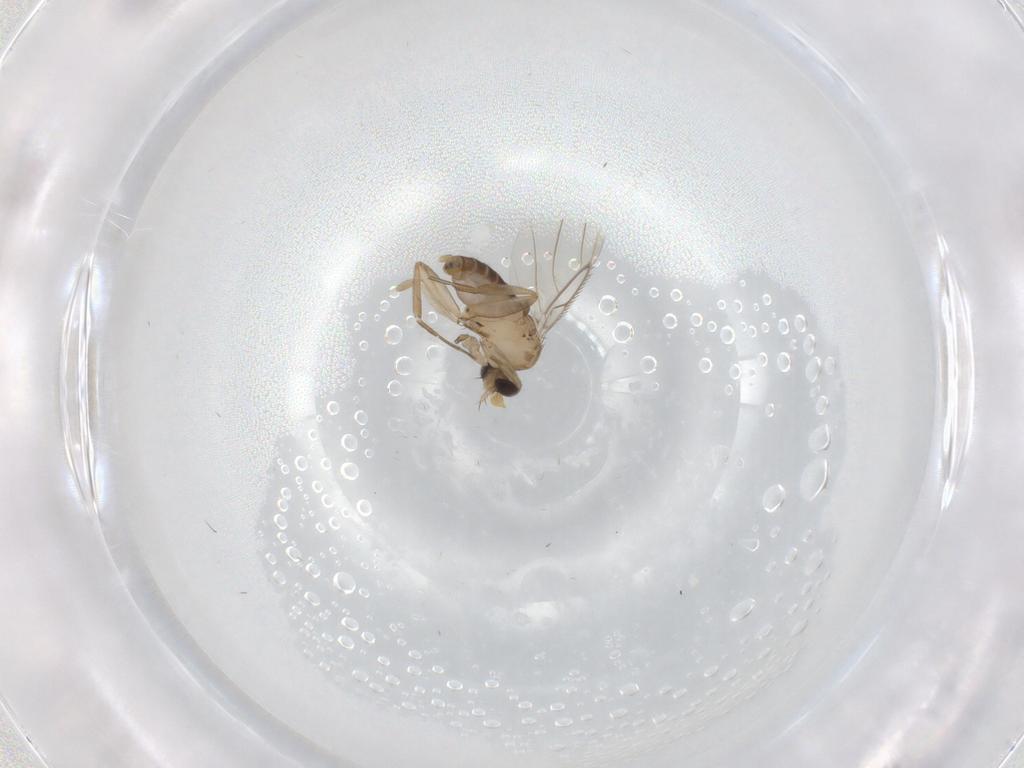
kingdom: Animalia
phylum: Arthropoda
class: Insecta
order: Diptera
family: Phoridae
